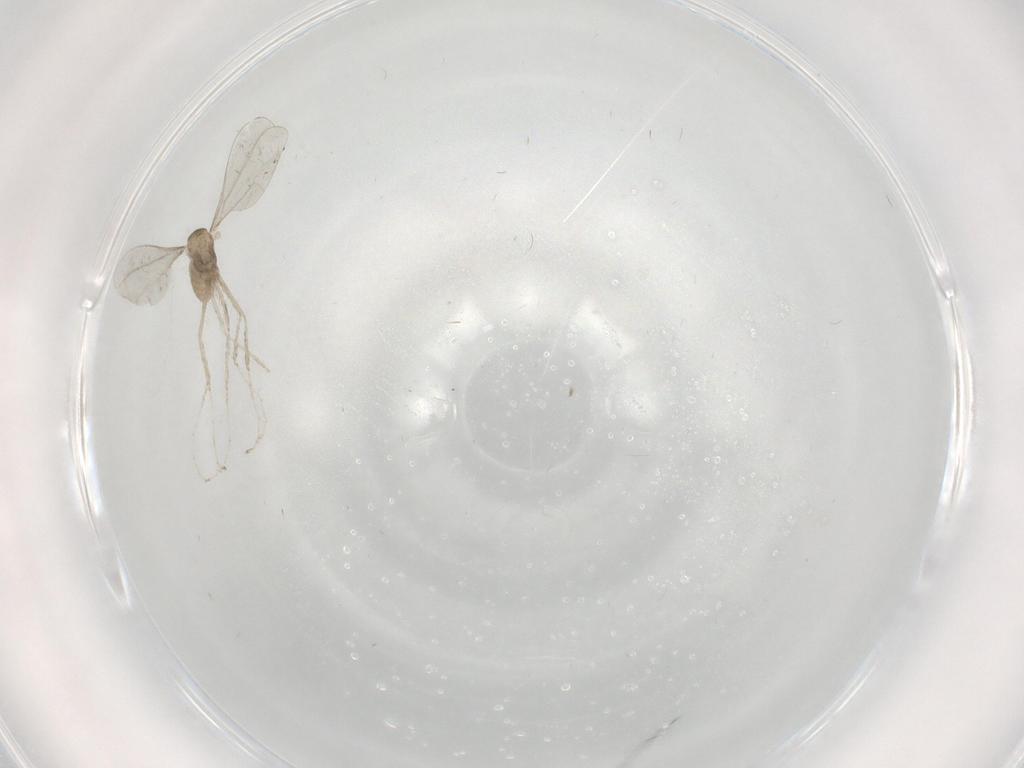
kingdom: Animalia
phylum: Arthropoda
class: Insecta
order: Diptera
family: Cecidomyiidae
